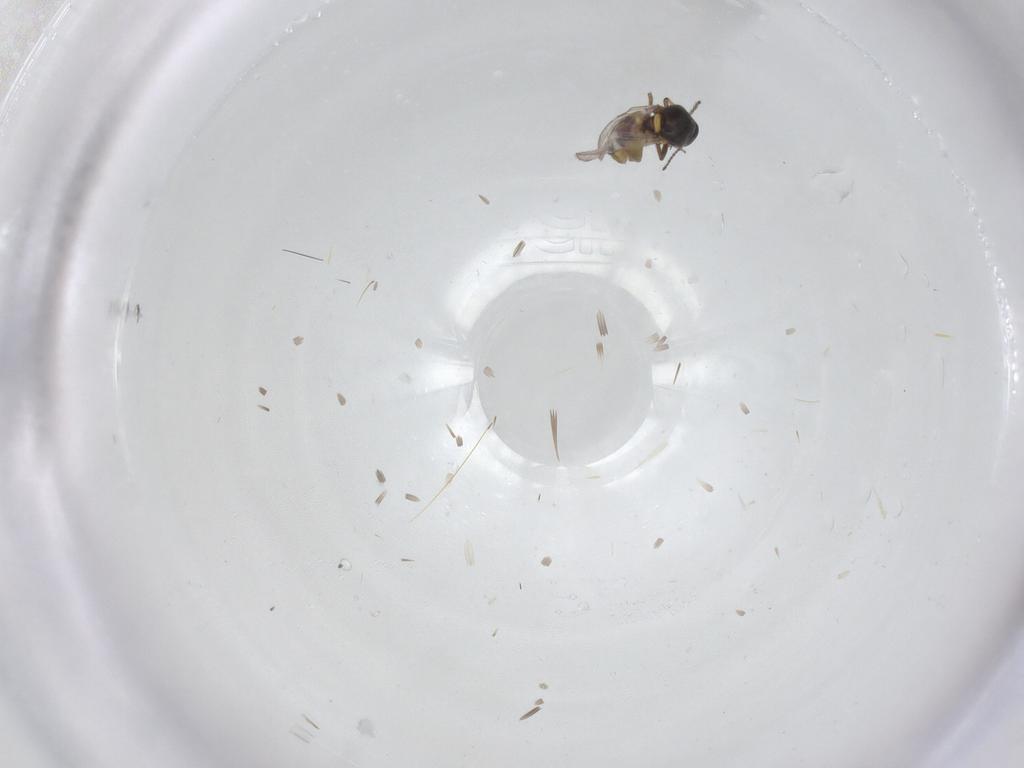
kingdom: Animalia
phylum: Arthropoda
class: Insecta
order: Diptera
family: Ceratopogonidae
